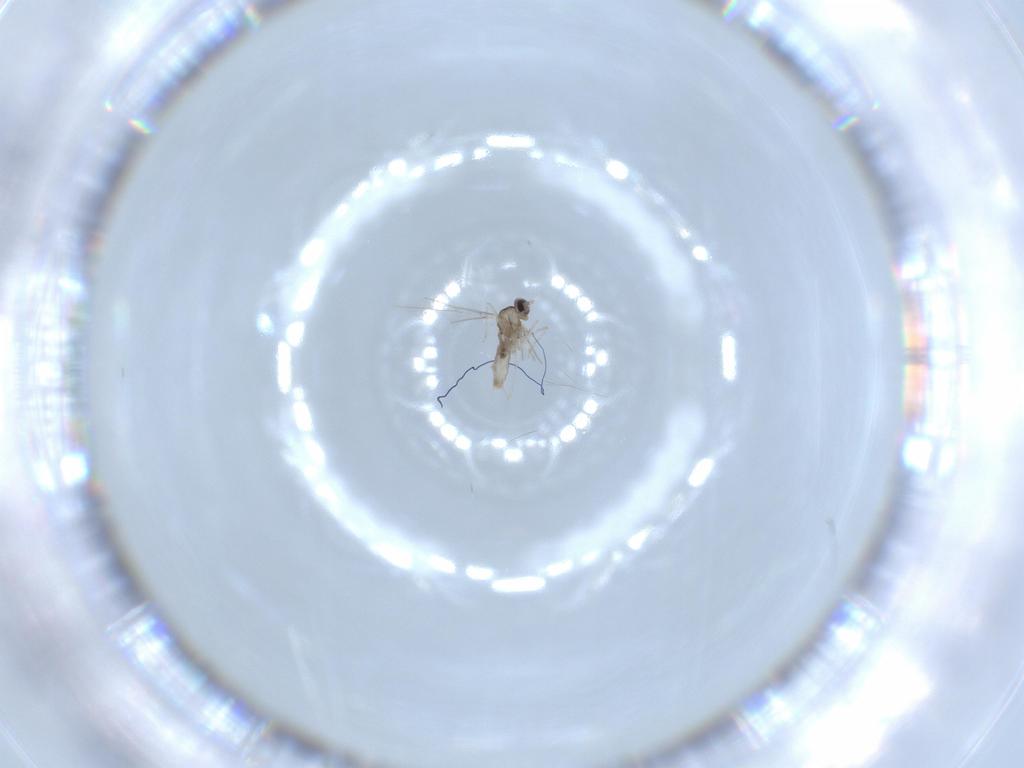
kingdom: Animalia
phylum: Arthropoda
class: Insecta
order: Diptera
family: Cecidomyiidae
